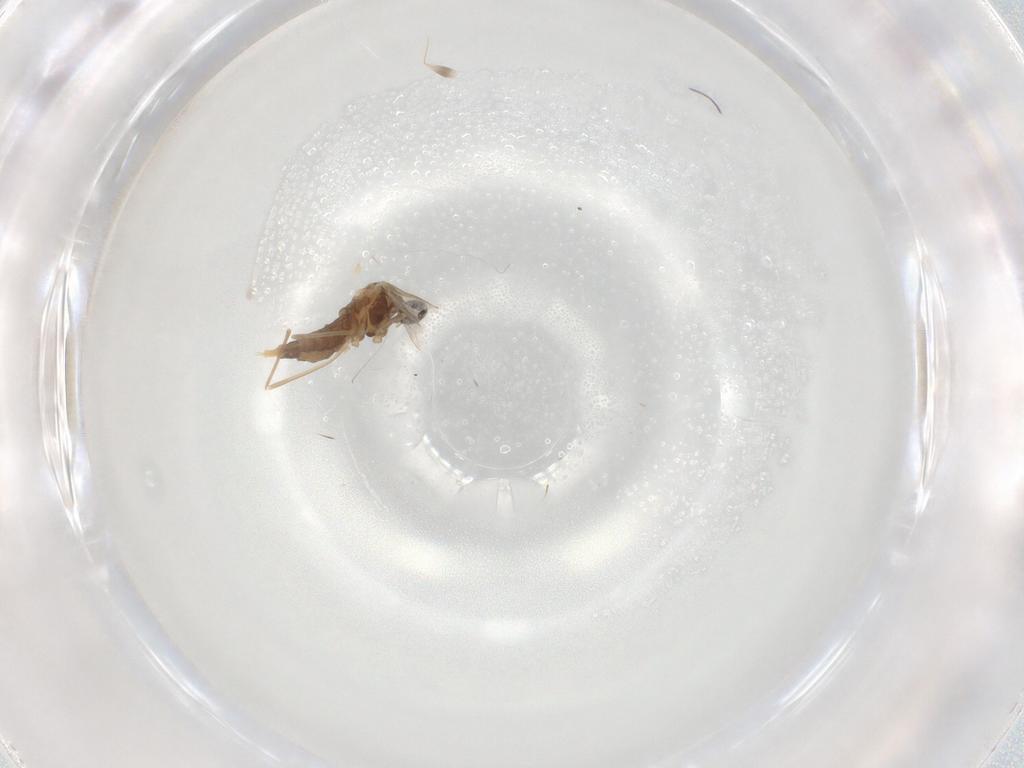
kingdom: Animalia
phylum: Arthropoda
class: Insecta
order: Diptera
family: Cecidomyiidae
